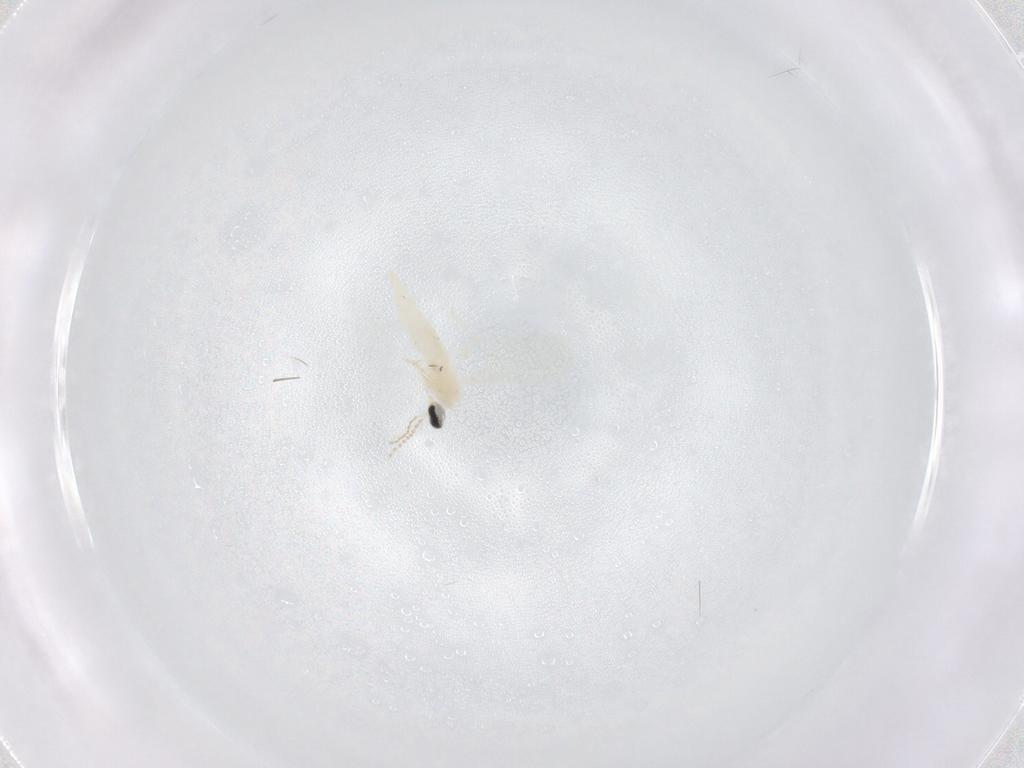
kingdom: Animalia
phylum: Arthropoda
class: Insecta
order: Diptera
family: Cecidomyiidae
